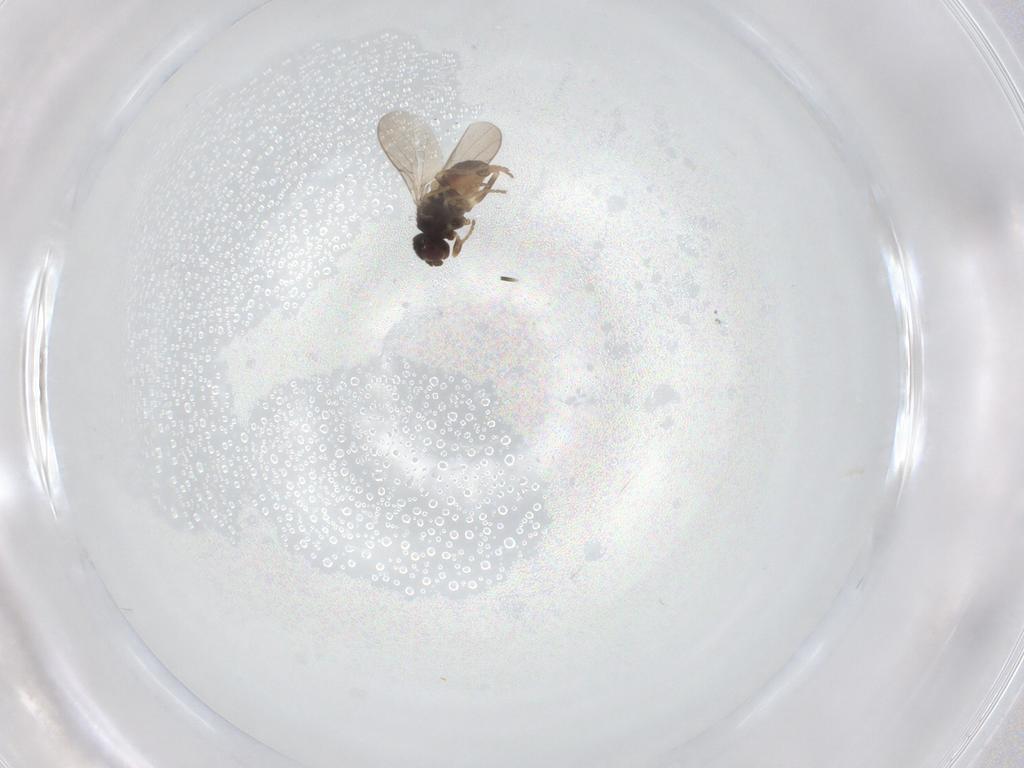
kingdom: Animalia
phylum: Arthropoda
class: Insecta
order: Diptera
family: Chloropidae
